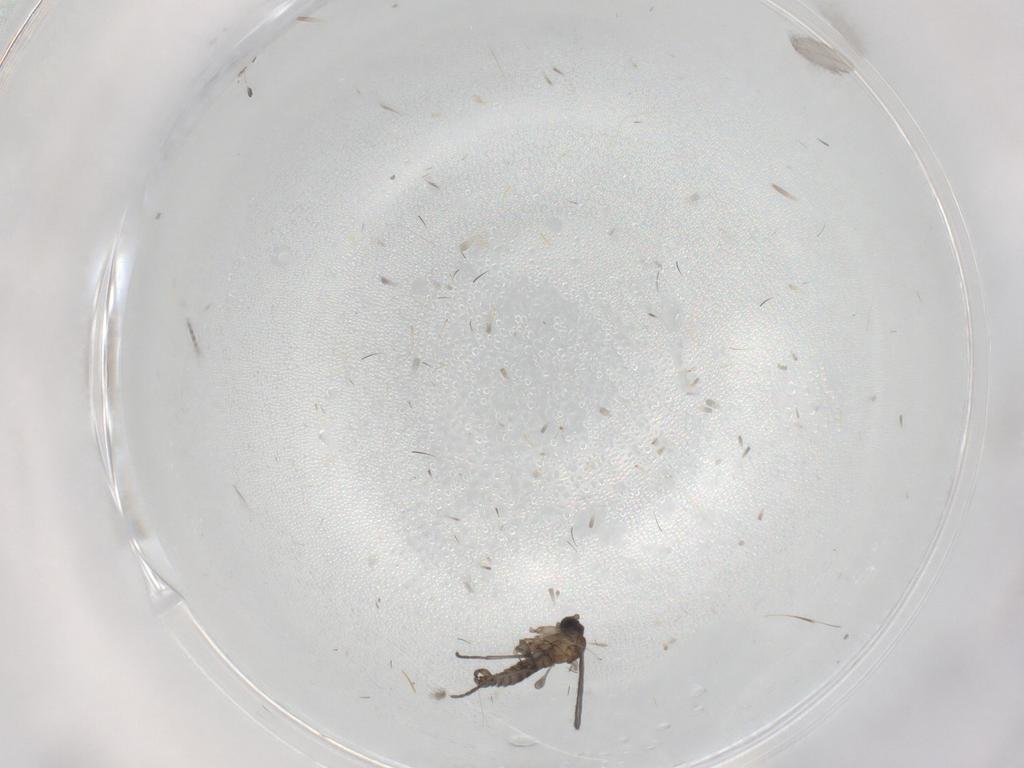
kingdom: Animalia
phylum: Arthropoda
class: Insecta
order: Diptera
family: Sciaridae
